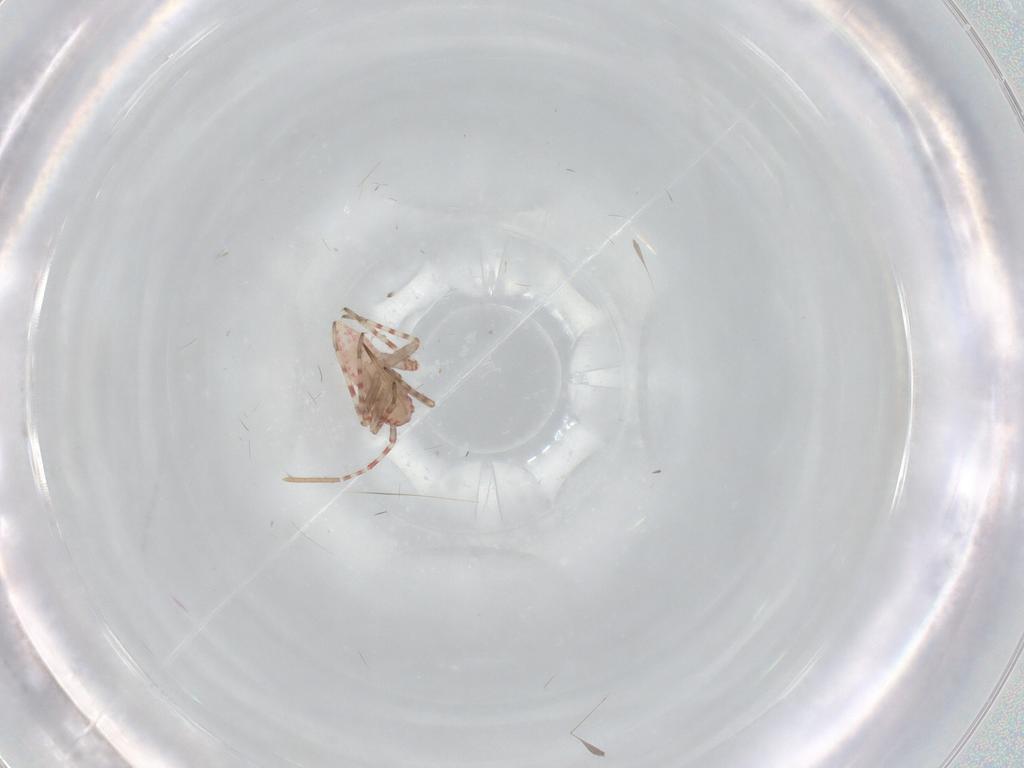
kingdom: Animalia
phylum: Arthropoda
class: Insecta
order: Hemiptera
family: Miridae
